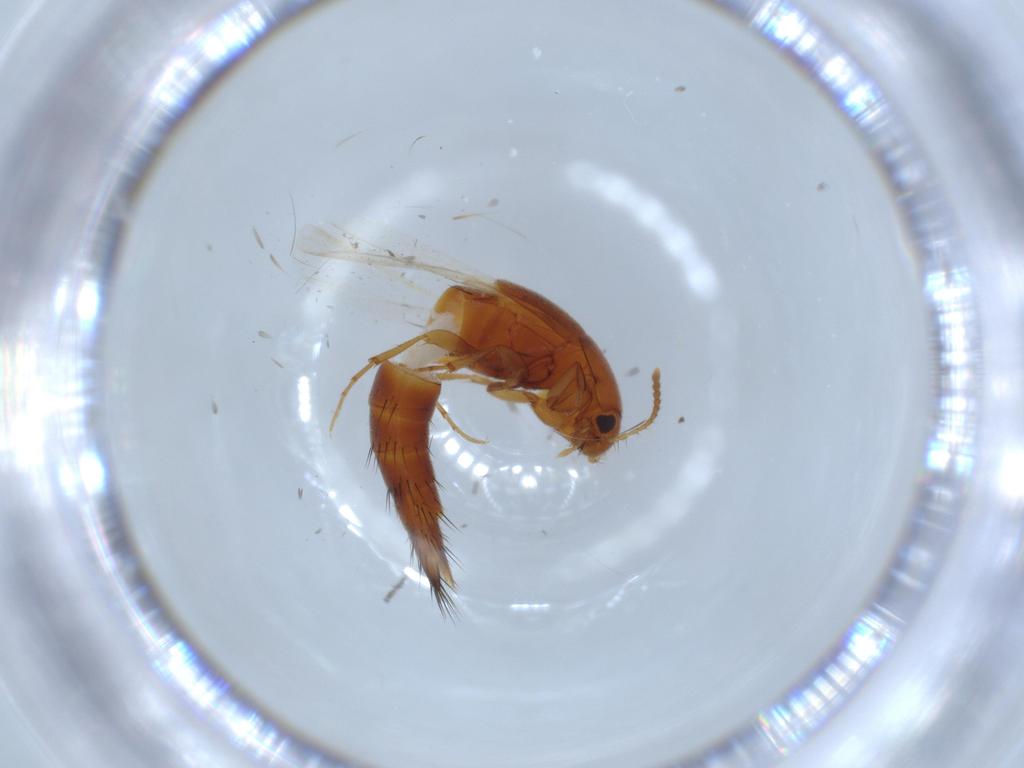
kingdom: Animalia
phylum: Arthropoda
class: Insecta
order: Coleoptera
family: Staphylinidae
